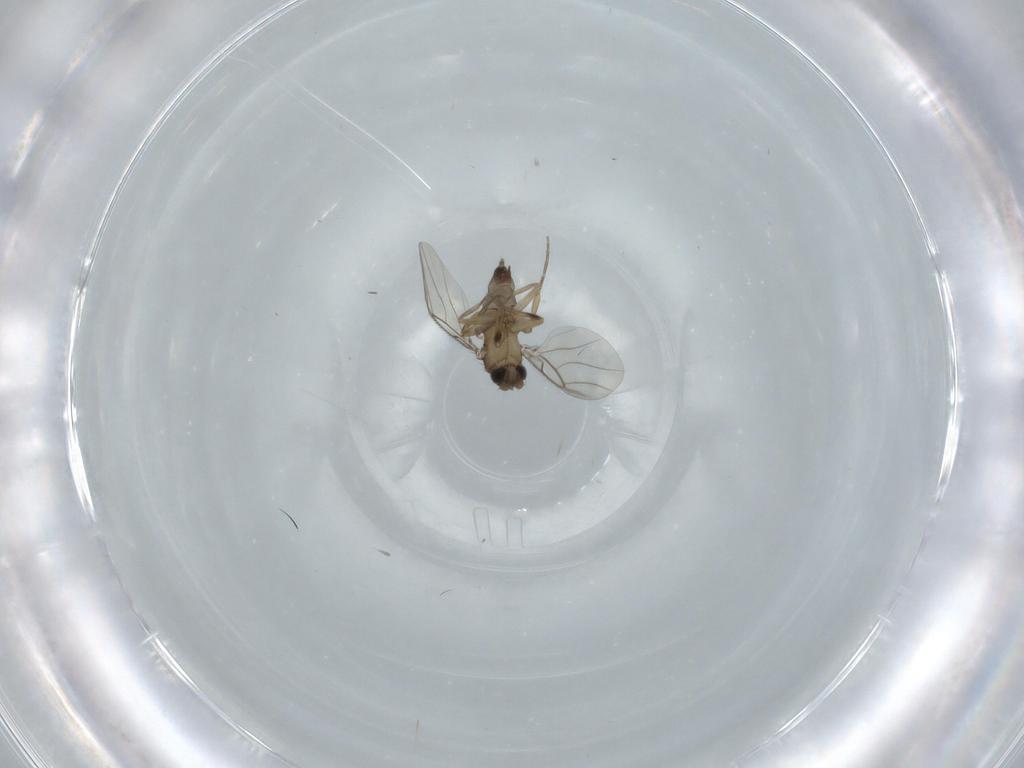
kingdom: Animalia
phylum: Arthropoda
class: Insecta
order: Diptera
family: Phoridae
